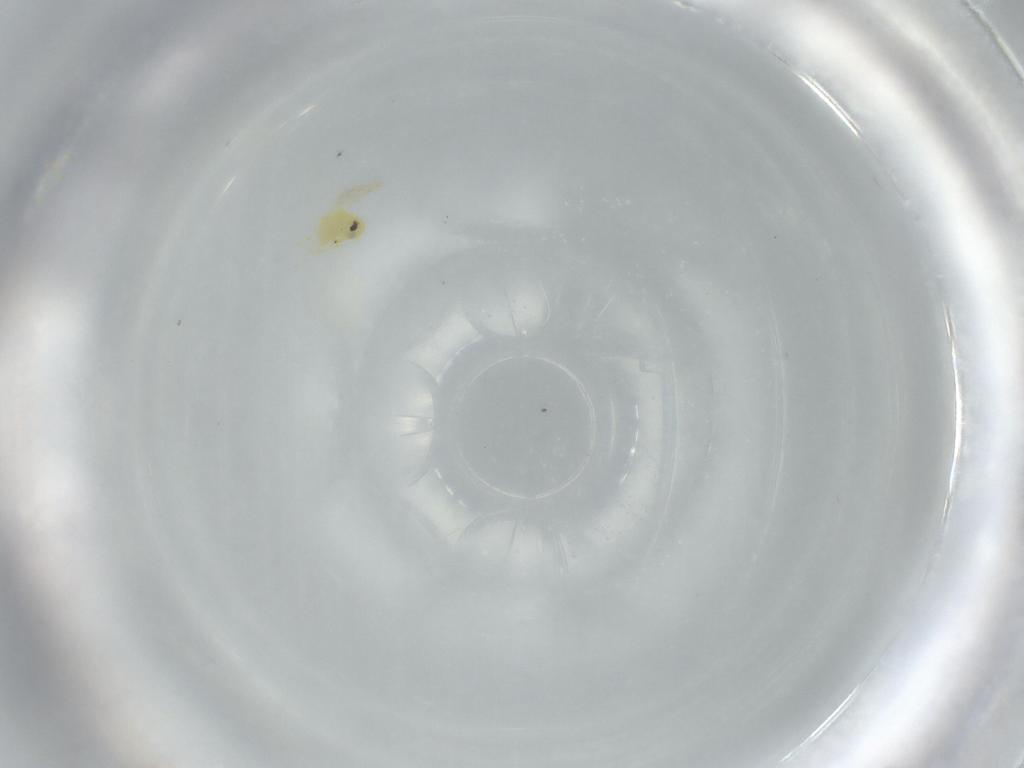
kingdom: Animalia
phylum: Arthropoda
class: Insecta
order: Hemiptera
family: Aleyrodidae
